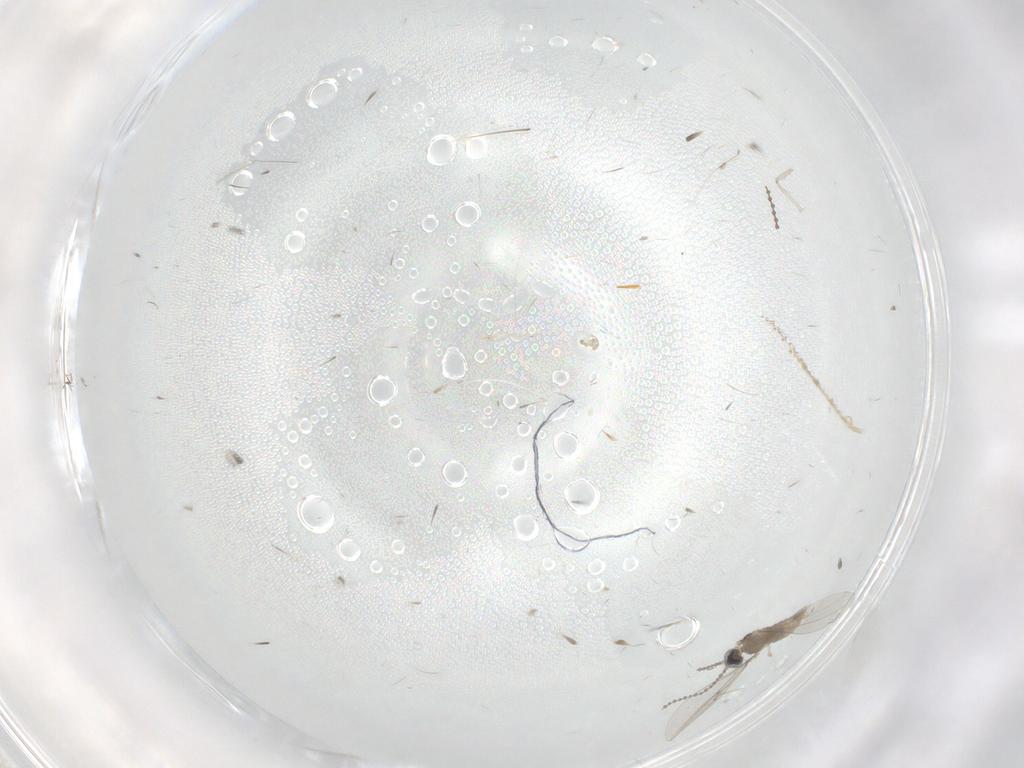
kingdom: Animalia
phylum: Arthropoda
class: Insecta
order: Diptera
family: Cecidomyiidae
